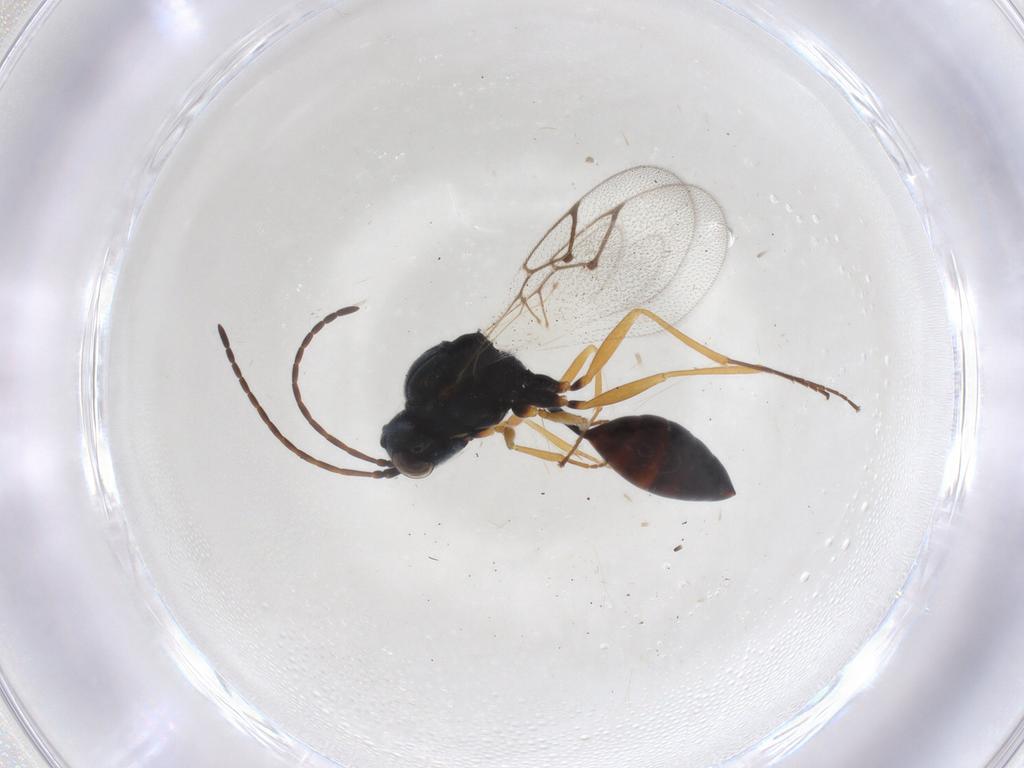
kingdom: Animalia
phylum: Arthropoda
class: Insecta
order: Hymenoptera
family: Figitidae
